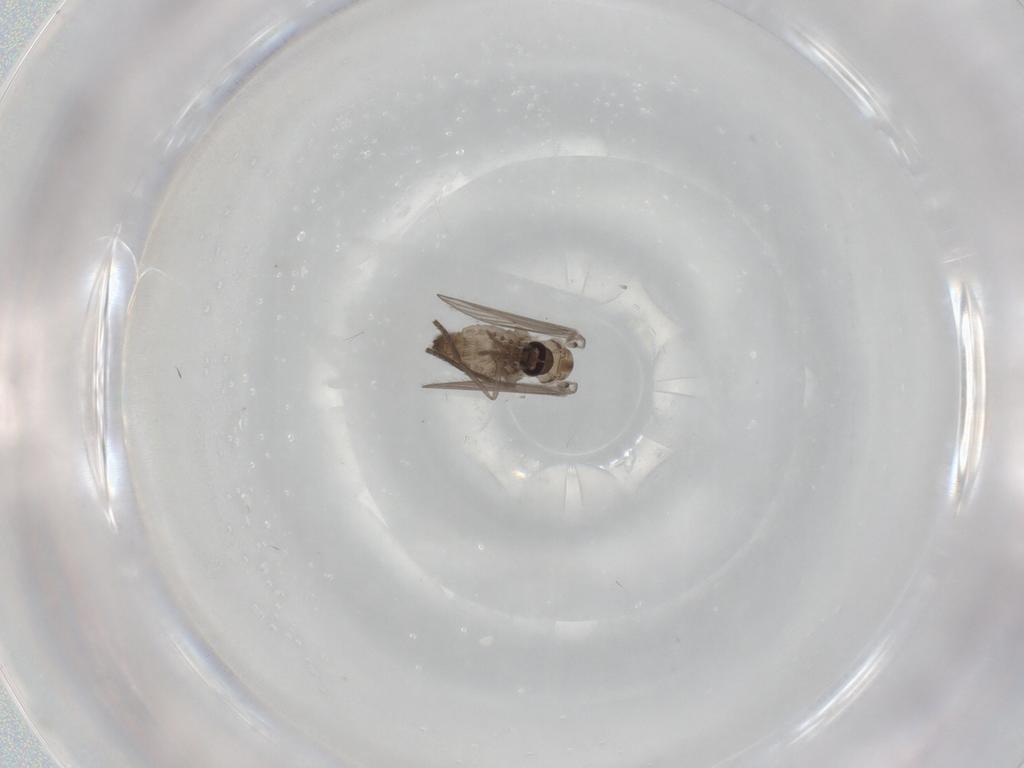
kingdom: Animalia
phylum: Arthropoda
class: Insecta
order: Diptera
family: Psychodidae
